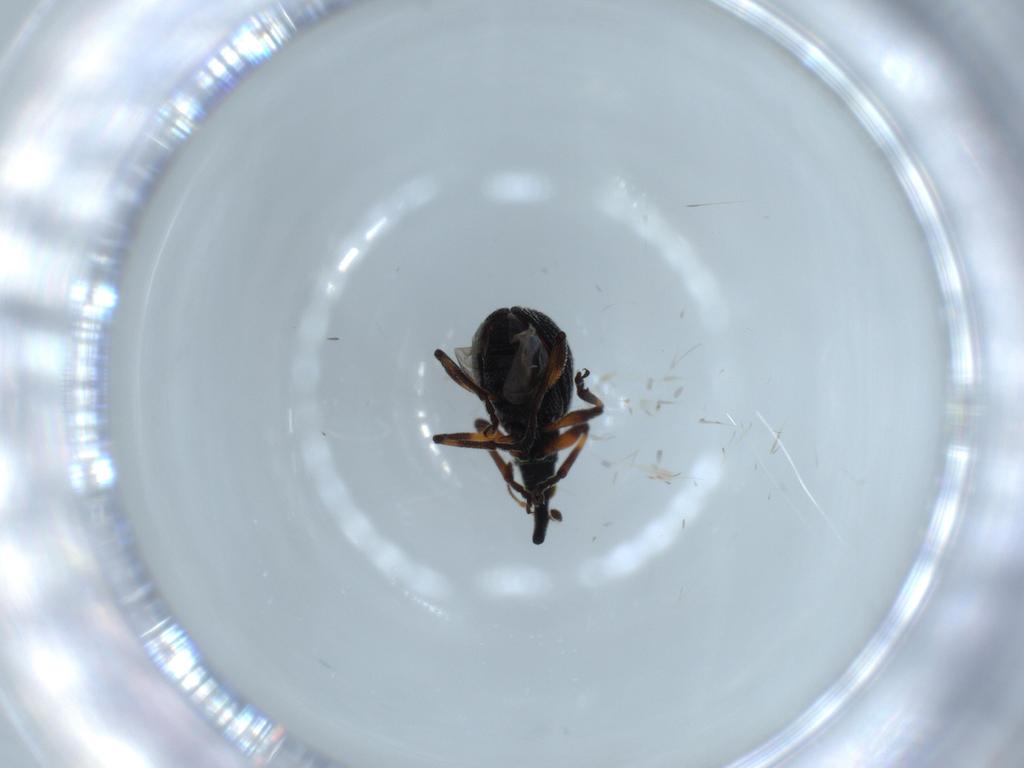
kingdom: Animalia
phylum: Arthropoda
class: Insecta
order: Coleoptera
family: Brentidae
